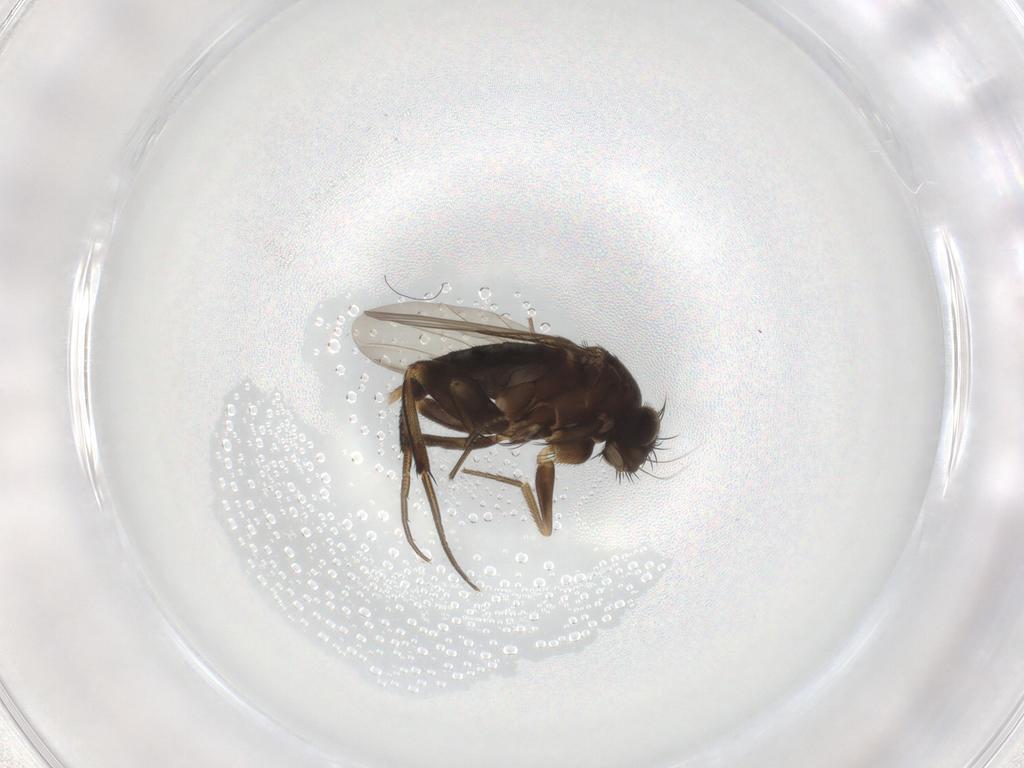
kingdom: Animalia
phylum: Arthropoda
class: Insecta
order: Diptera
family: Phoridae
